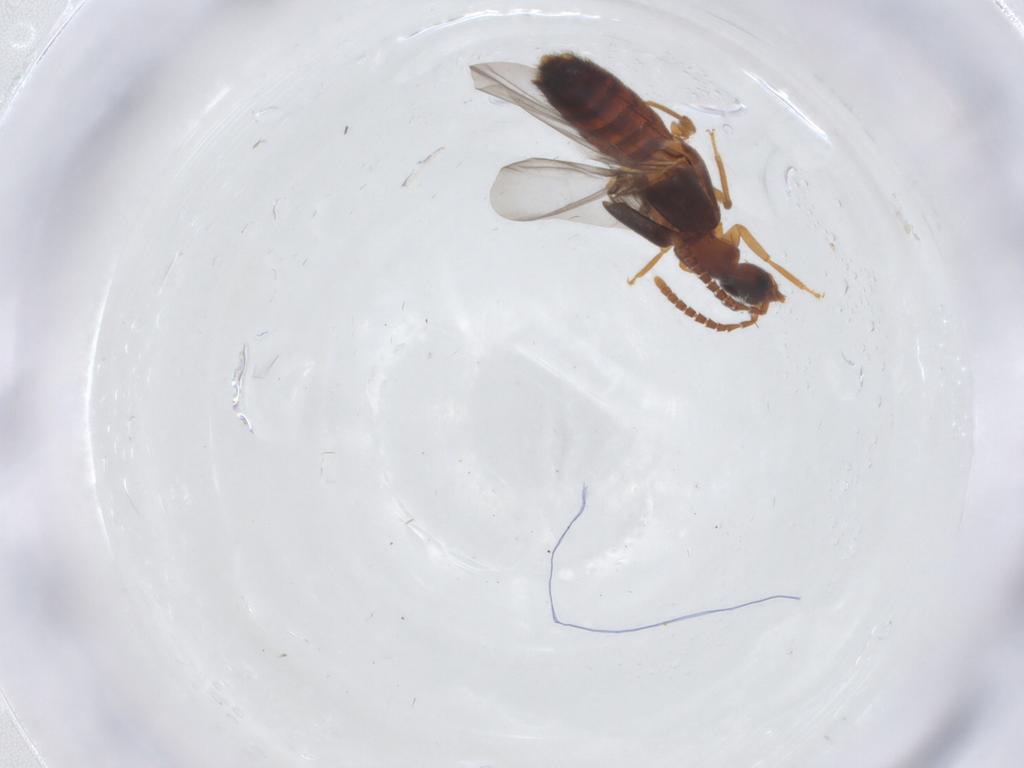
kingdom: Animalia
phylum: Arthropoda
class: Insecta
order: Coleoptera
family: Staphylinidae
